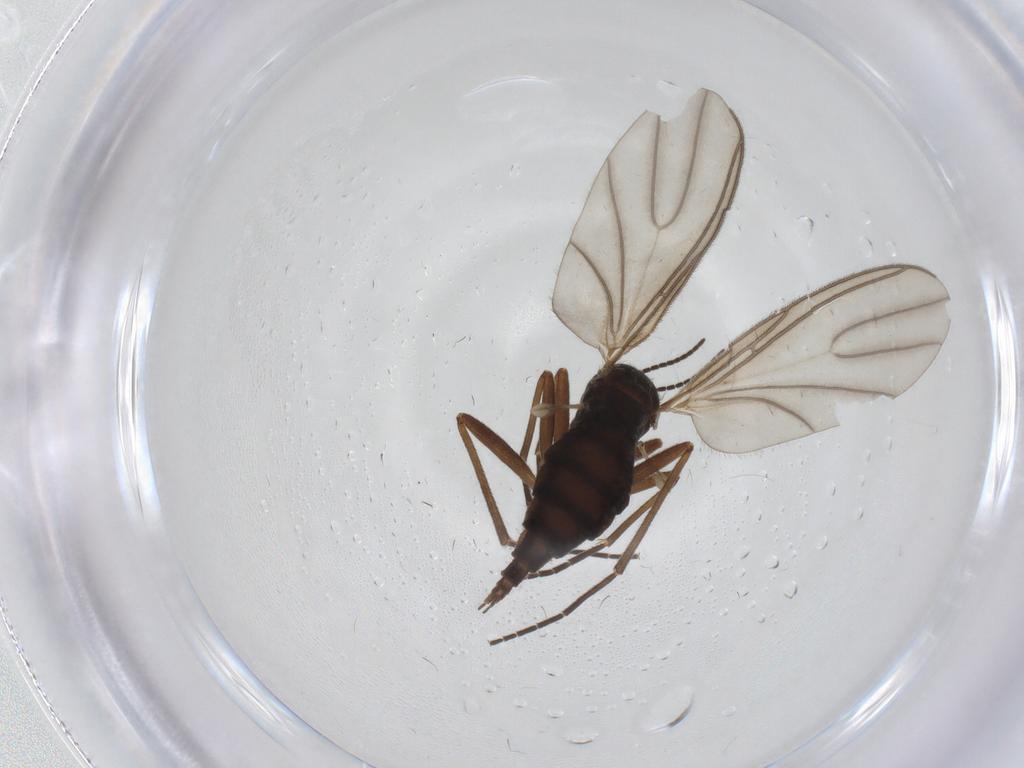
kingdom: Animalia
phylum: Arthropoda
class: Insecta
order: Diptera
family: Sciaridae
